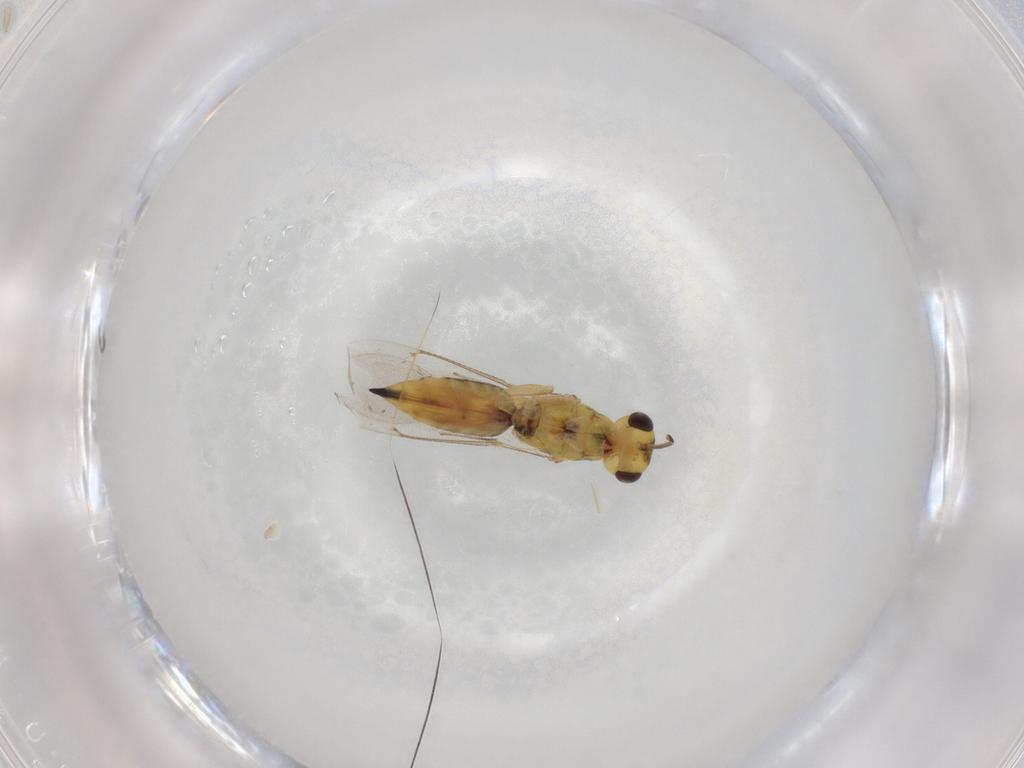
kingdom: Animalia
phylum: Arthropoda
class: Insecta
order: Hymenoptera
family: Eulophidae
